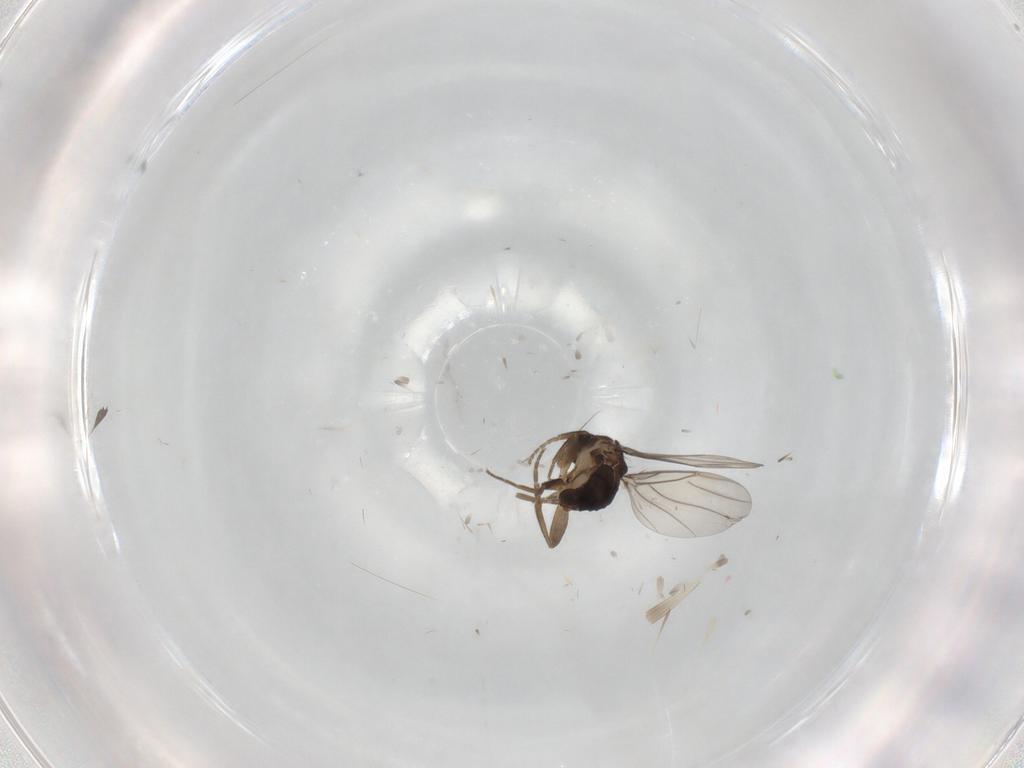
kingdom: Animalia
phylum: Arthropoda
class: Insecta
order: Diptera
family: Phoridae
